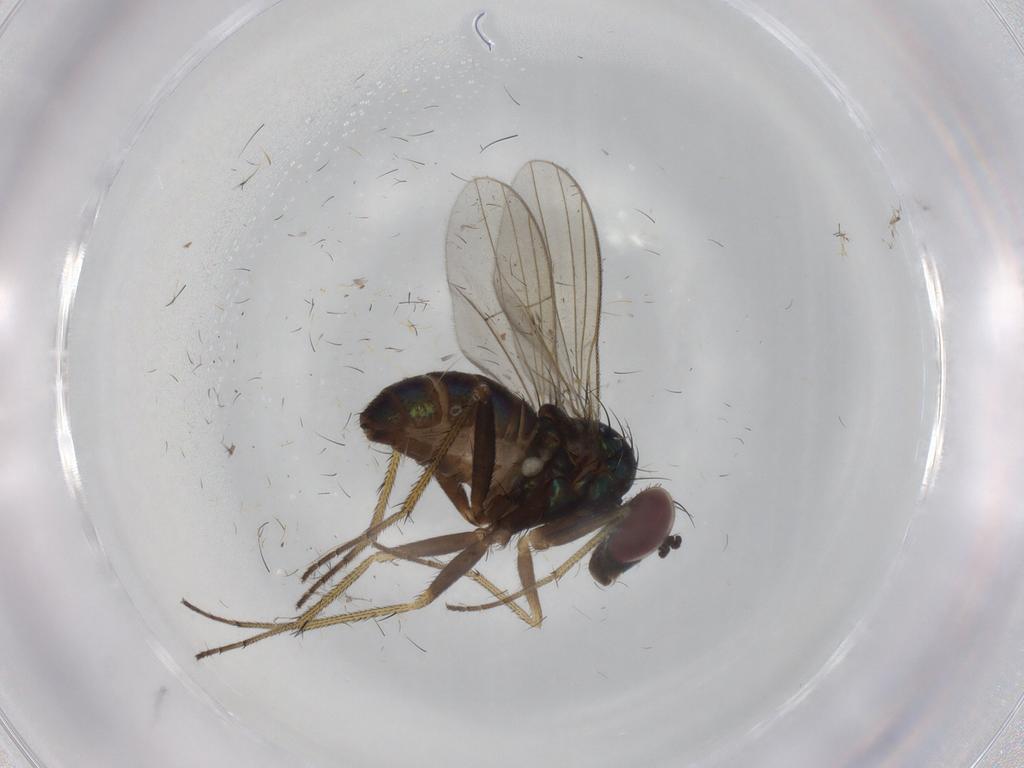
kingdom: Animalia
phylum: Arthropoda
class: Insecta
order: Diptera
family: Dolichopodidae
